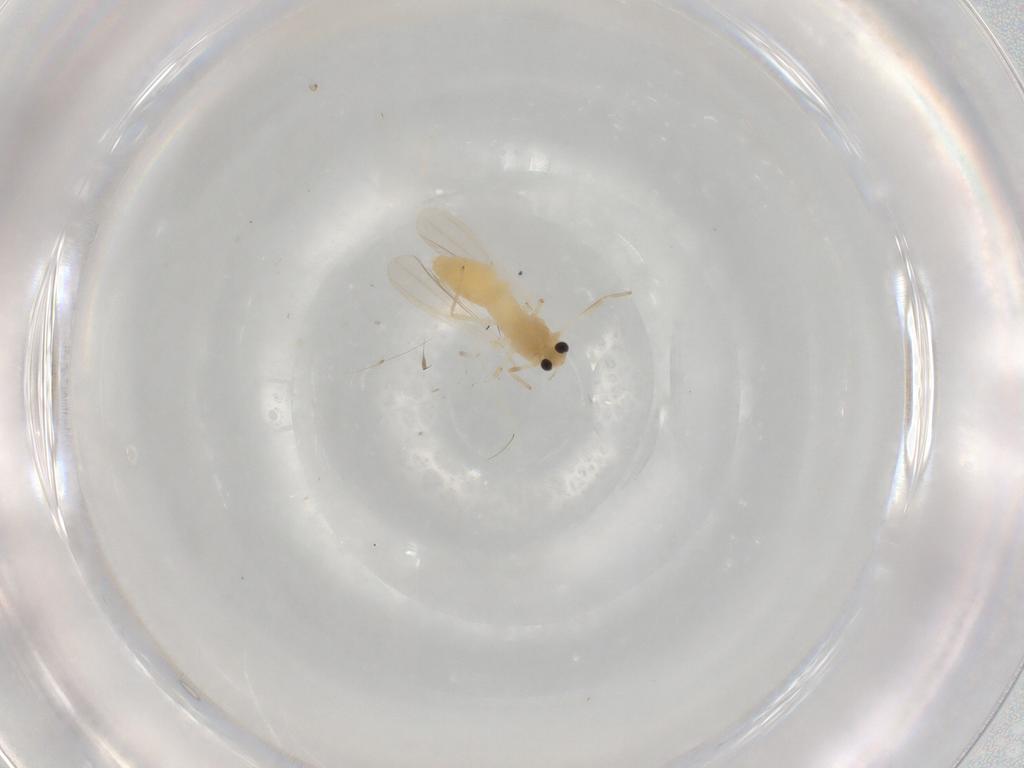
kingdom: Animalia
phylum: Arthropoda
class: Insecta
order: Diptera
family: Chironomidae
